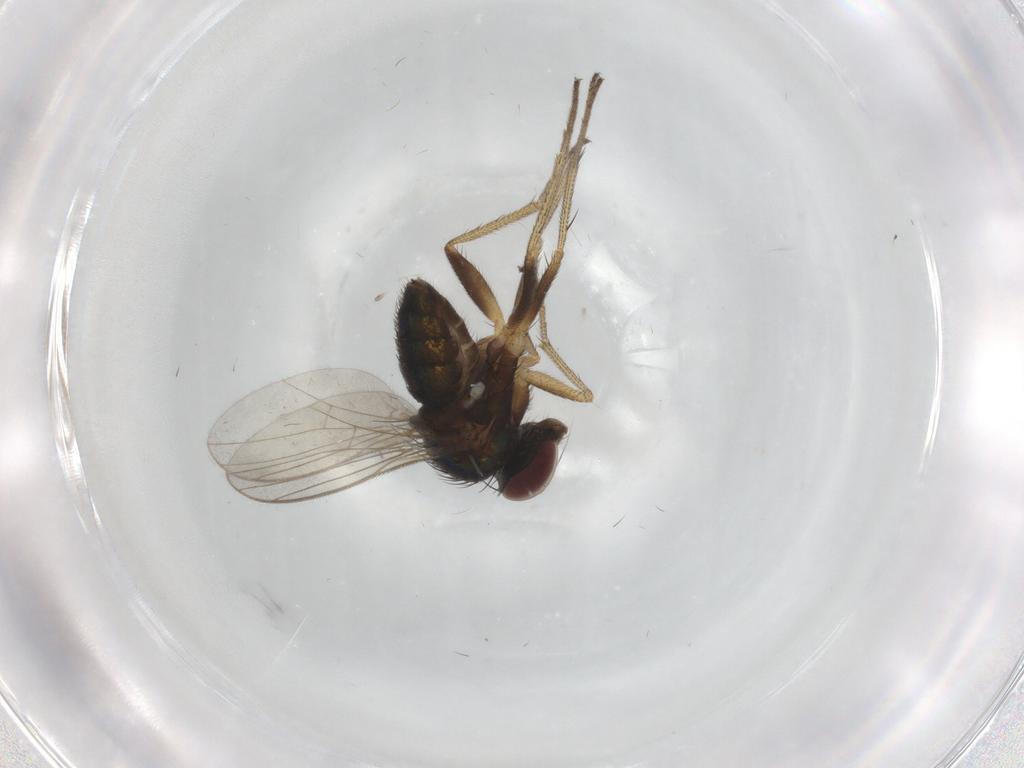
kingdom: Animalia
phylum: Arthropoda
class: Insecta
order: Diptera
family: Dolichopodidae
